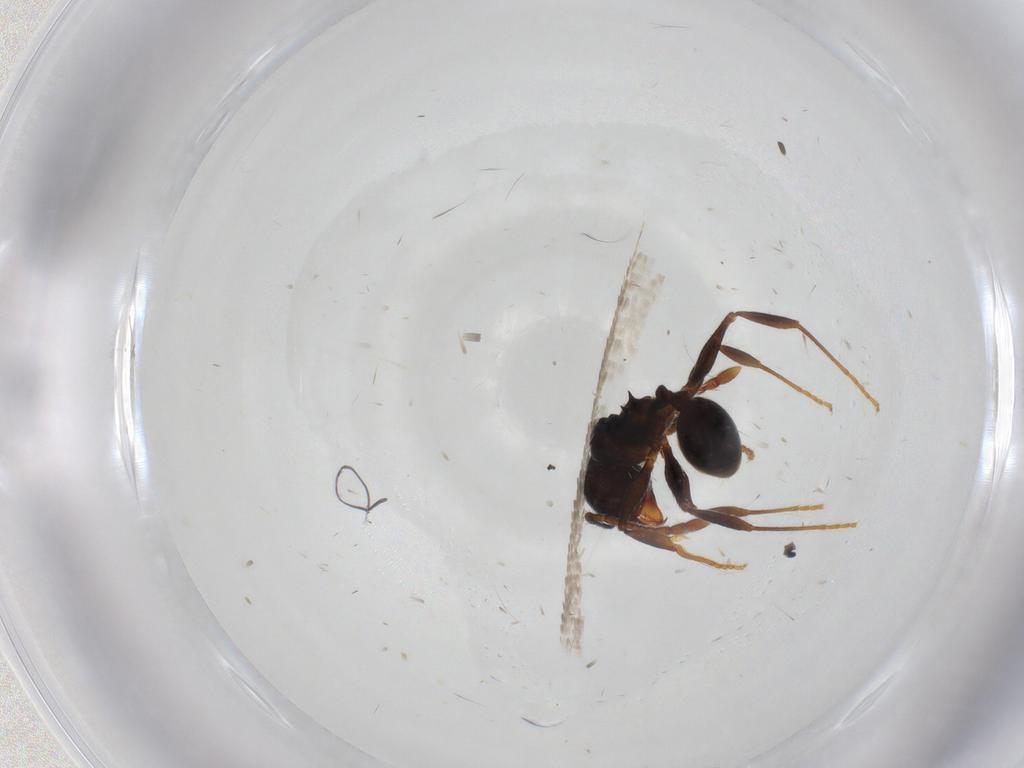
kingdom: Animalia
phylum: Arthropoda
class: Insecta
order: Hymenoptera
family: Formicidae
